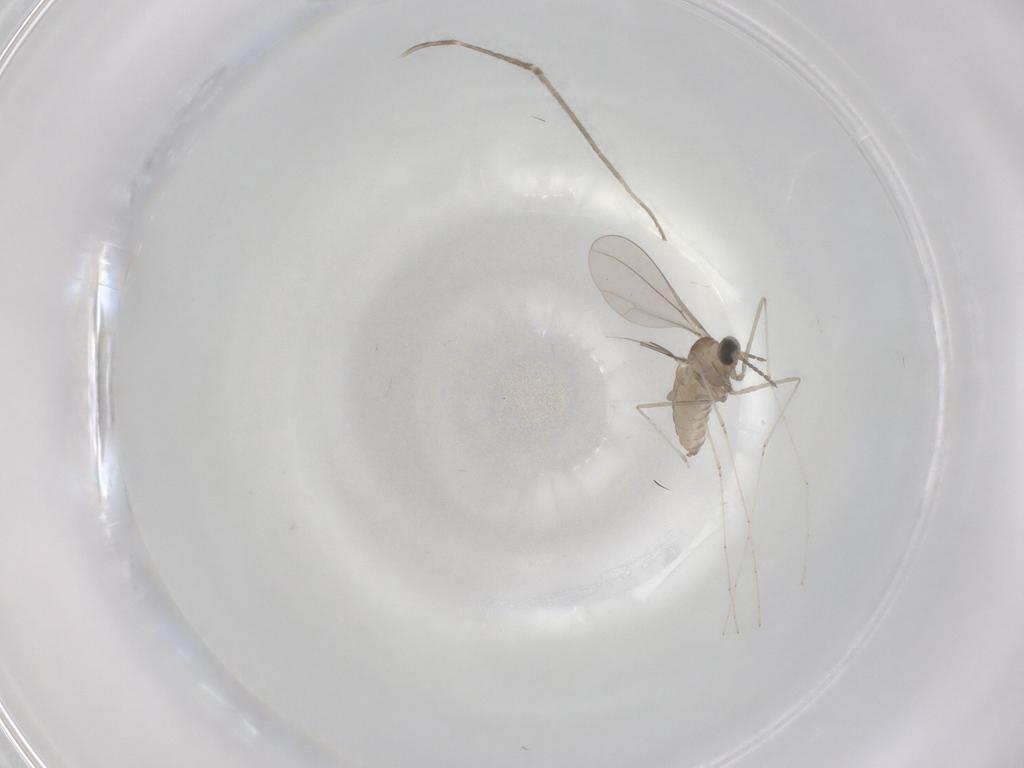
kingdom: Animalia
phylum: Arthropoda
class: Insecta
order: Diptera
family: Cecidomyiidae
